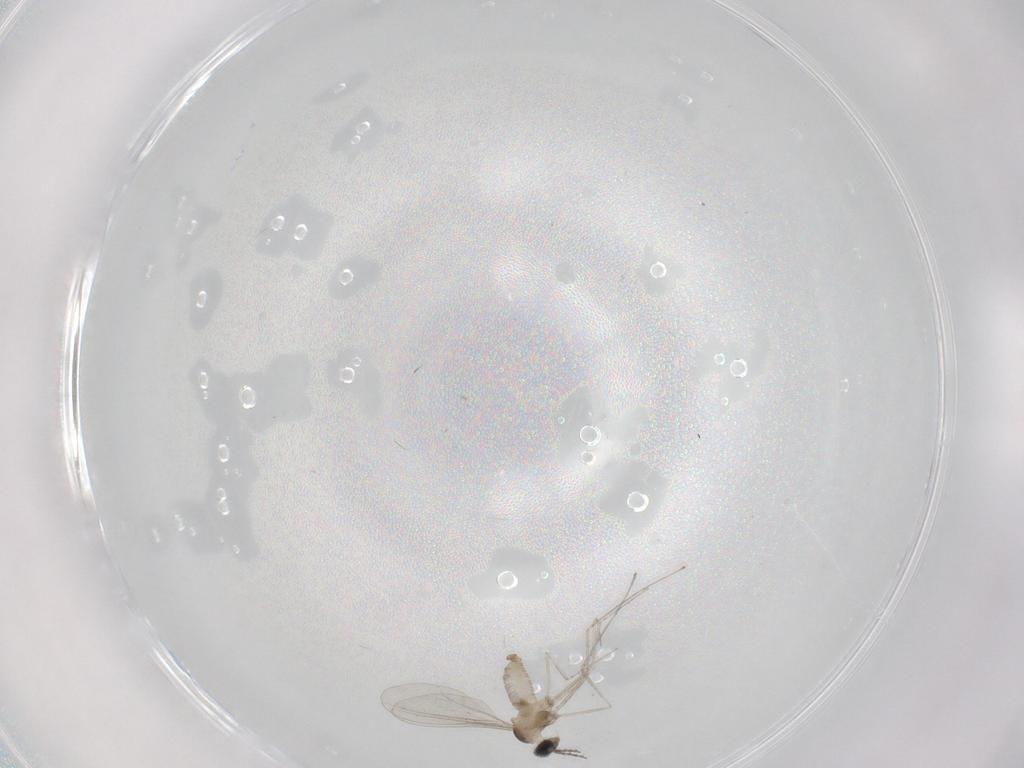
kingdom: Animalia
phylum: Arthropoda
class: Insecta
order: Diptera
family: Cecidomyiidae
